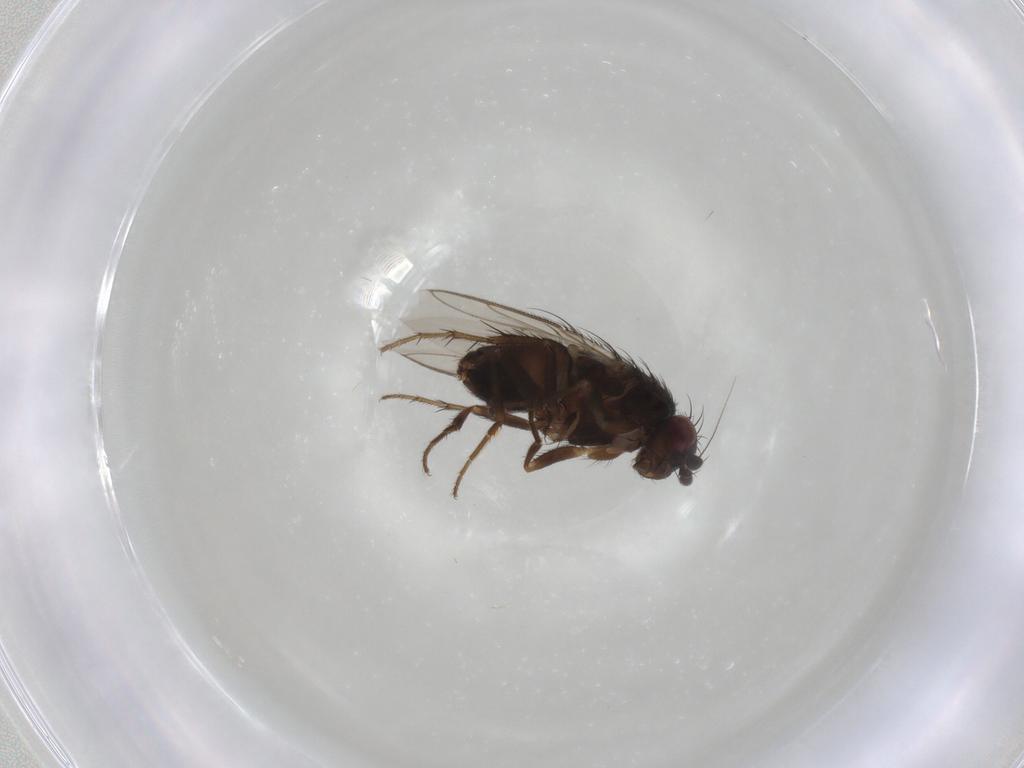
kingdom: Animalia
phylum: Arthropoda
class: Insecta
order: Diptera
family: Sphaeroceridae
